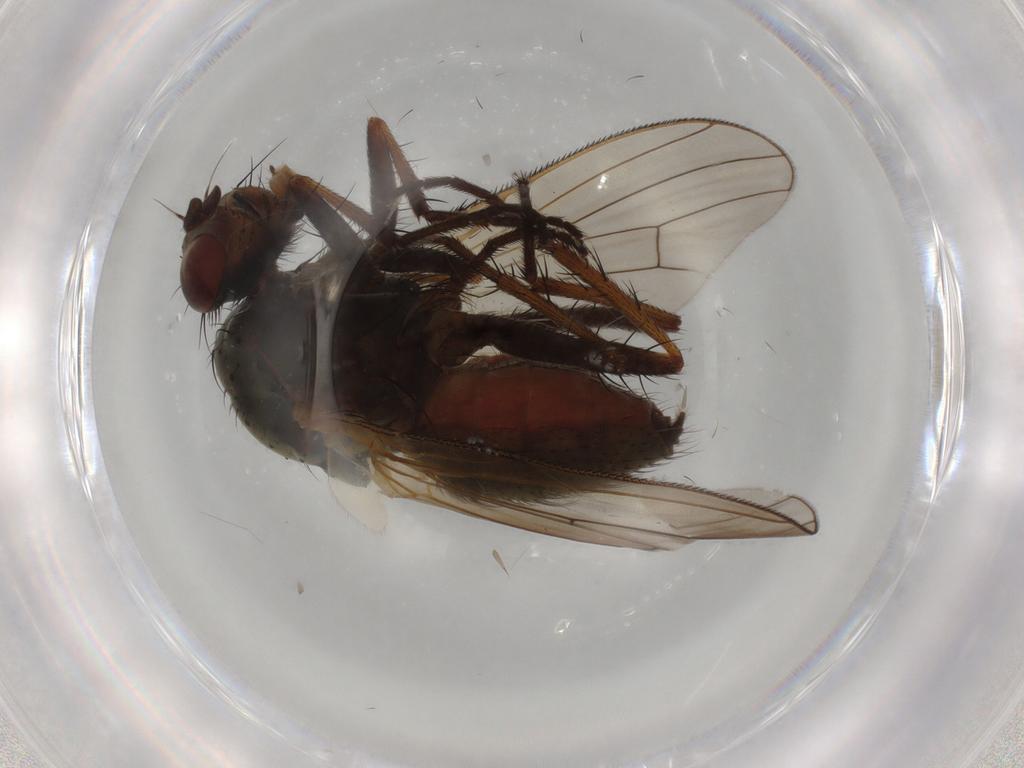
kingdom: Animalia
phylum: Arthropoda
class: Insecta
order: Diptera
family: Anthomyiidae
